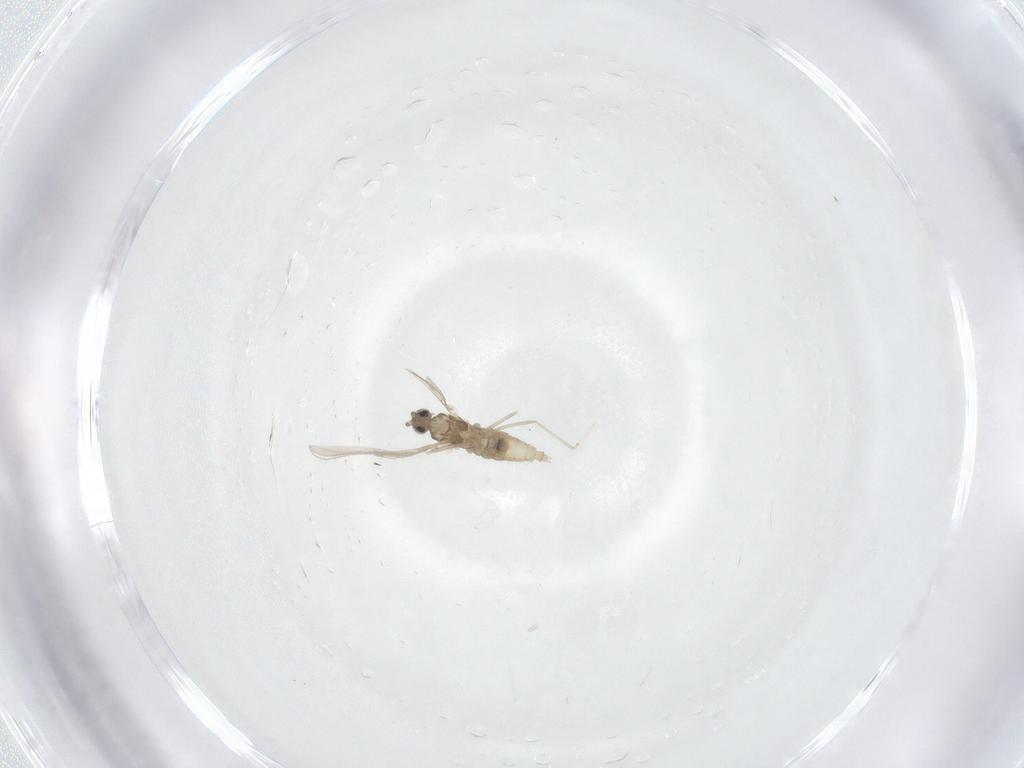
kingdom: Animalia
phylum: Arthropoda
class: Insecta
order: Diptera
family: Cecidomyiidae
